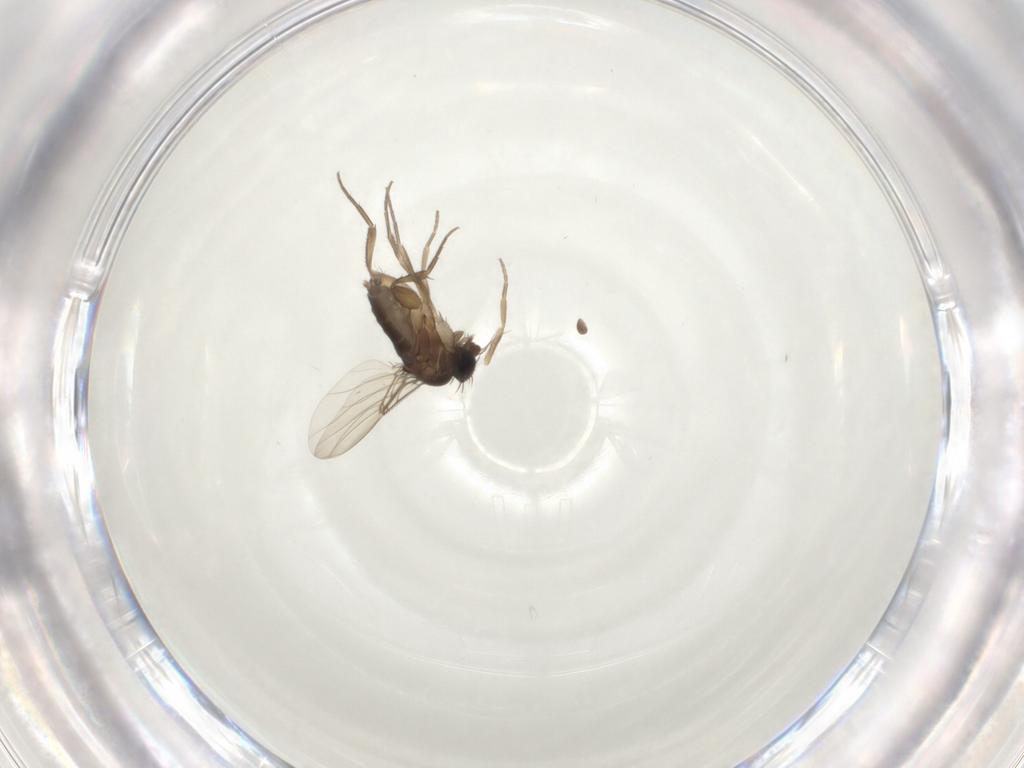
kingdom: Animalia
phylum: Arthropoda
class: Insecta
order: Diptera
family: Phoridae
